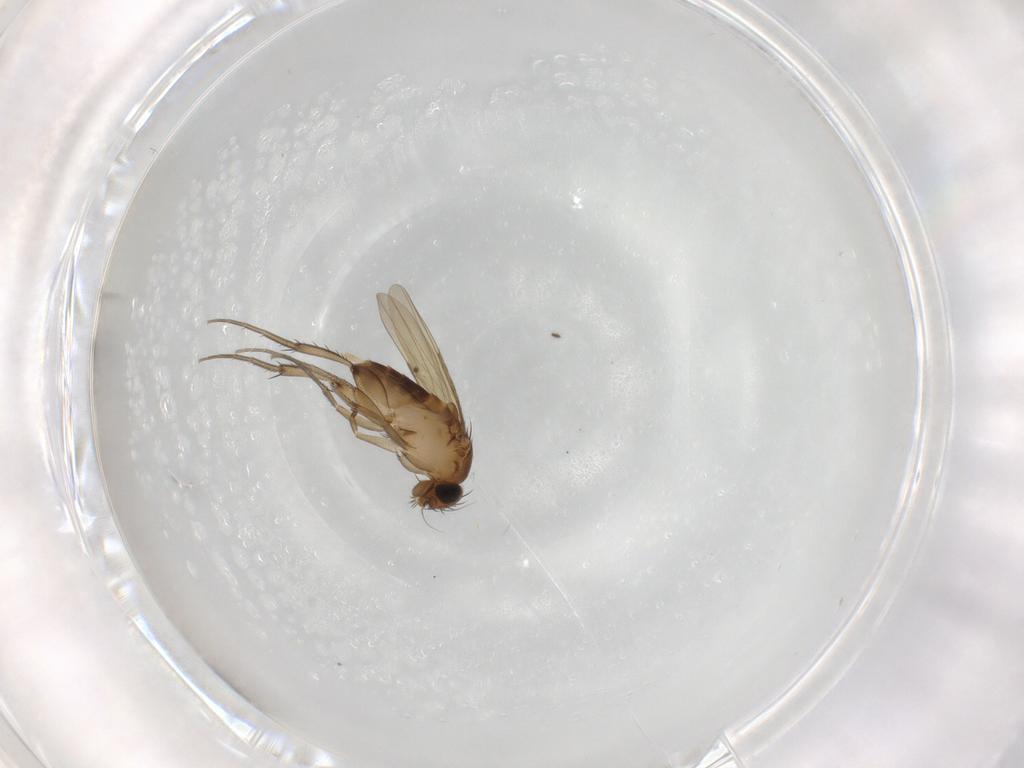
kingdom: Animalia
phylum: Arthropoda
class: Insecta
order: Diptera
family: Phoridae
